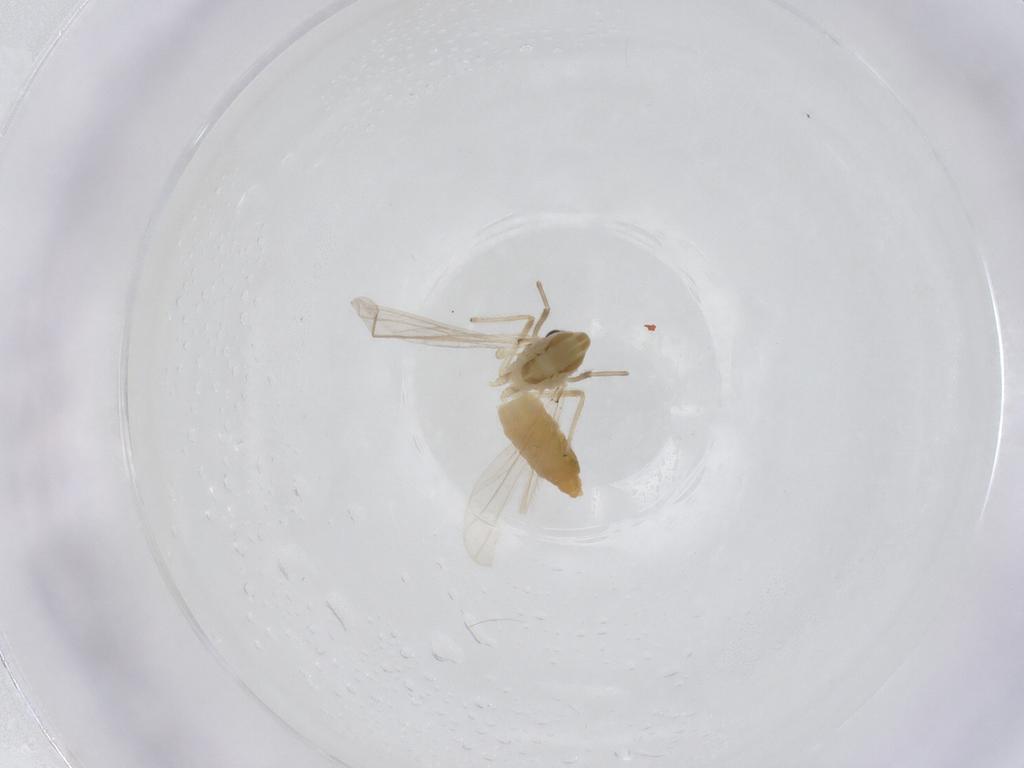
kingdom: Animalia
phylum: Arthropoda
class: Insecta
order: Diptera
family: Chironomidae
